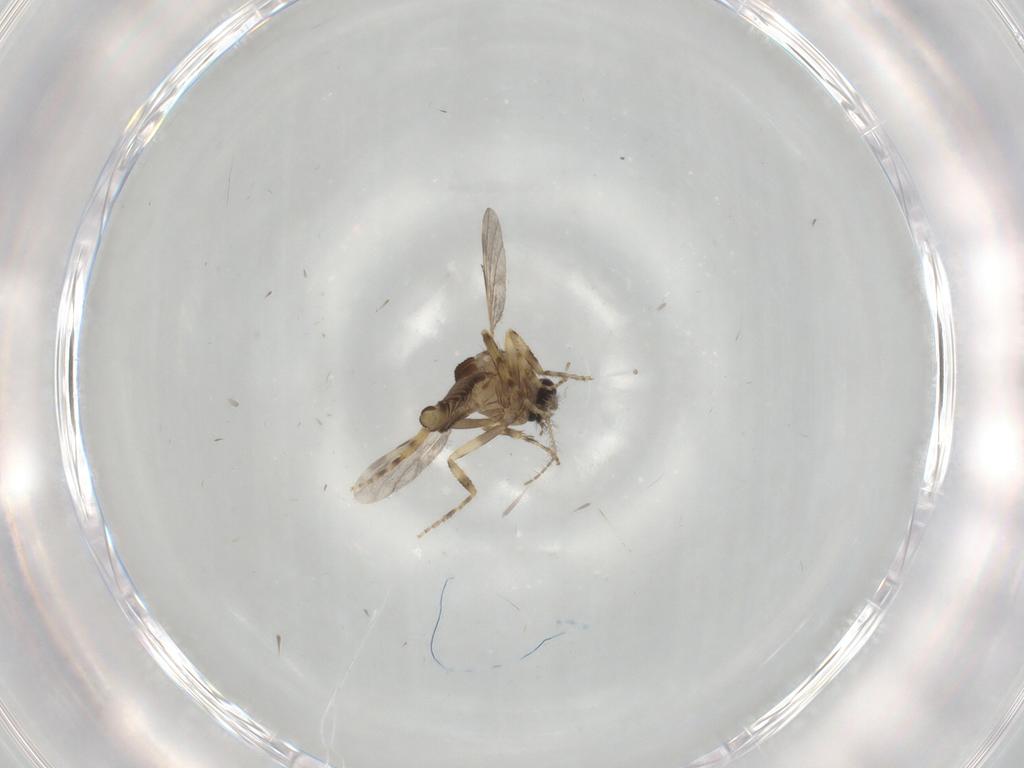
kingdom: Animalia
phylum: Arthropoda
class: Insecta
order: Diptera
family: Ceratopogonidae
